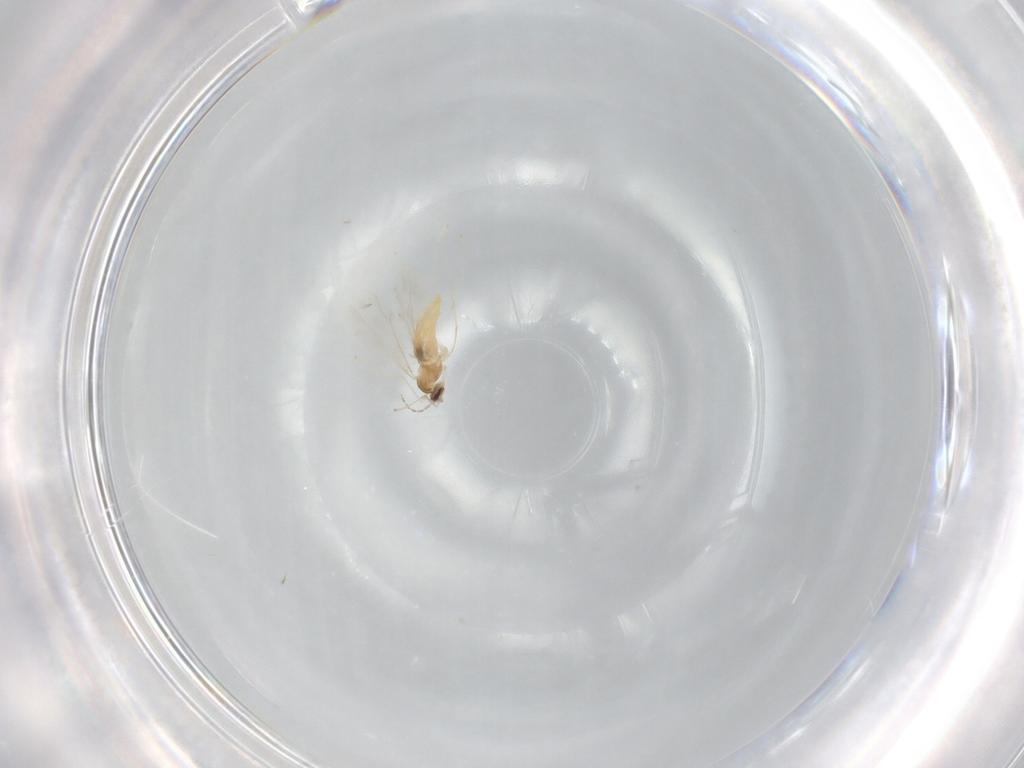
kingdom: Animalia
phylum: Arthropoda
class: Insecta
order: Diptera
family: Cecidomyiidae
